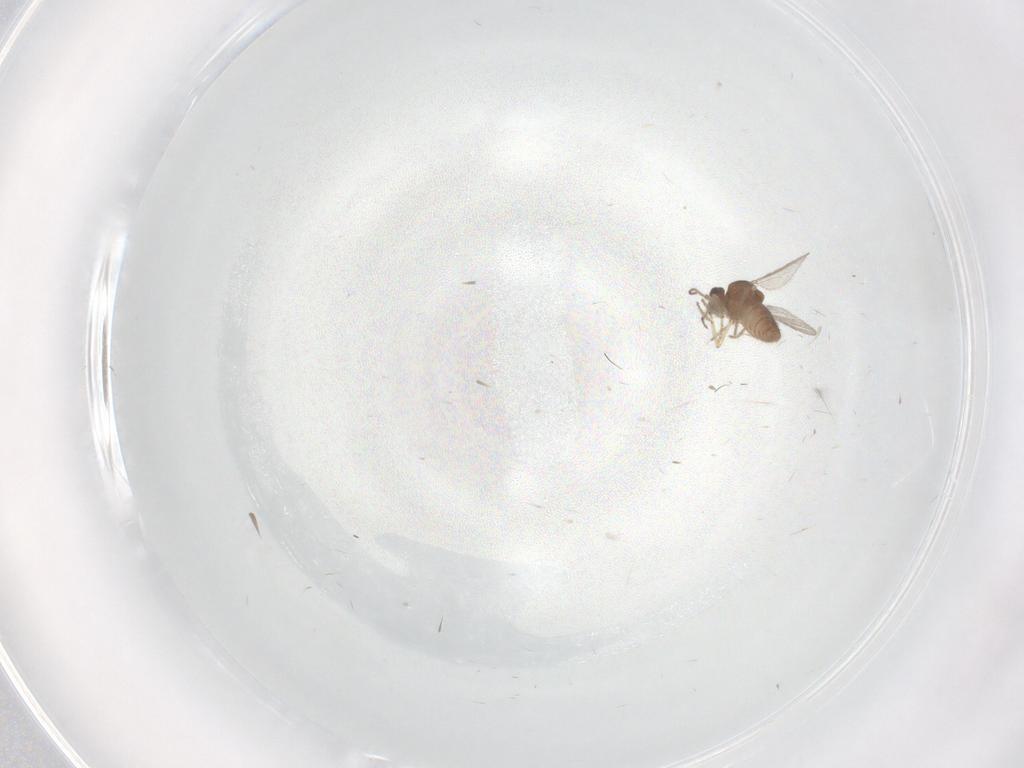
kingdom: Animalia
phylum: Arthropoda
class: Insecta
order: Diptera
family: Ceratopogonidae
